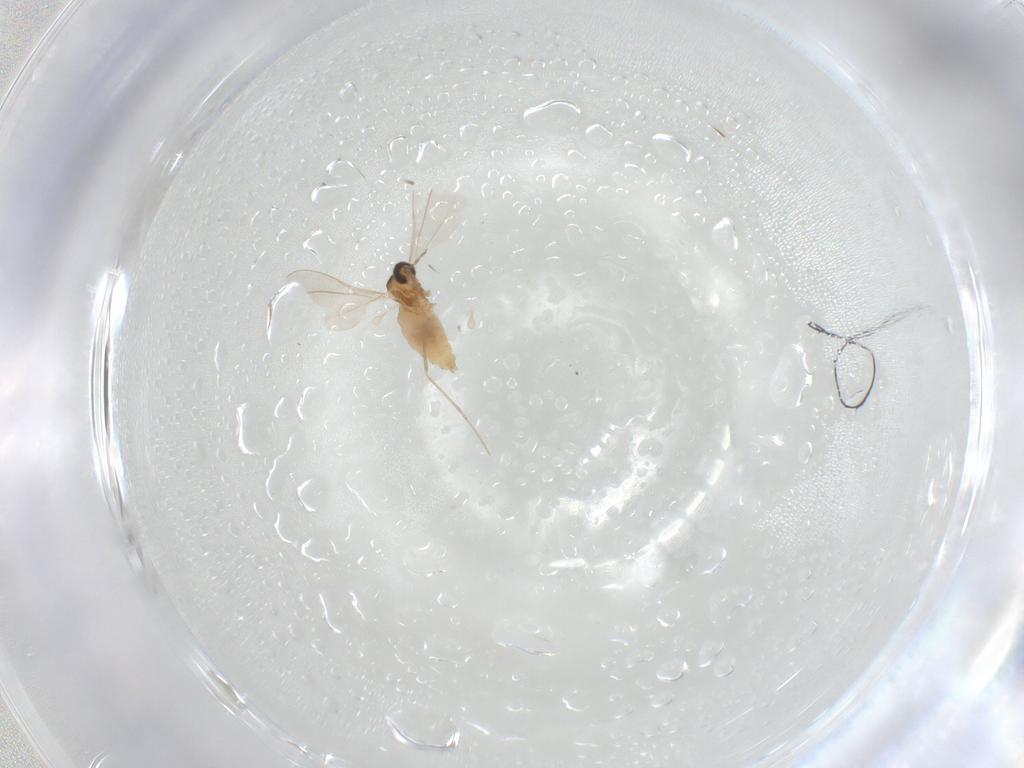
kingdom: Animalia
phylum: Arthropoda
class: Insecta
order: Diptera
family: Cecidomyiidae
